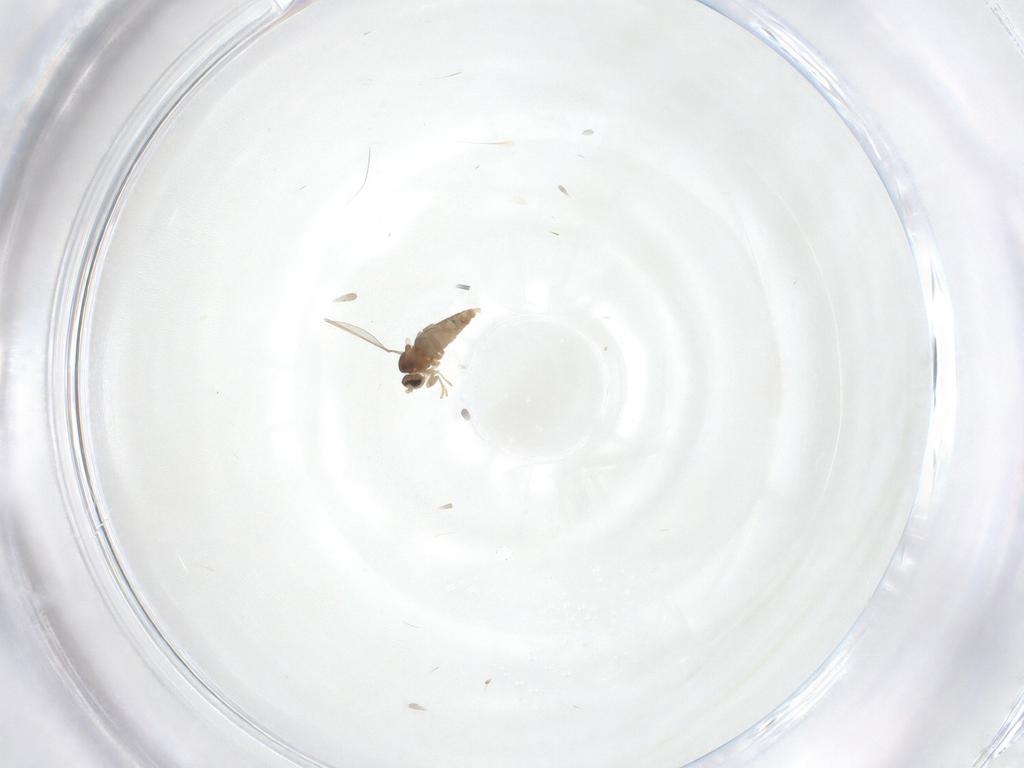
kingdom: Animalia
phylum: Arthropoda
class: Insecta
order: Diptera
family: Cecidomyiidae
